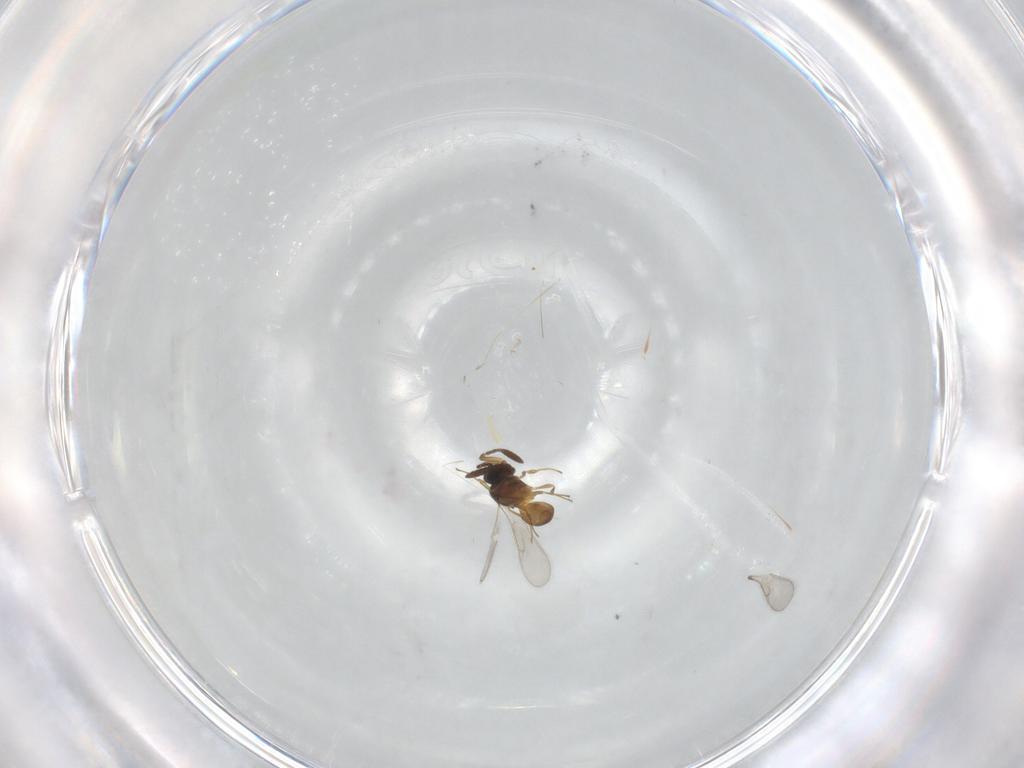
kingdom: Animalia
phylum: Arthropoda
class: Insecta
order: Hymenoptera
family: Scelionidae
